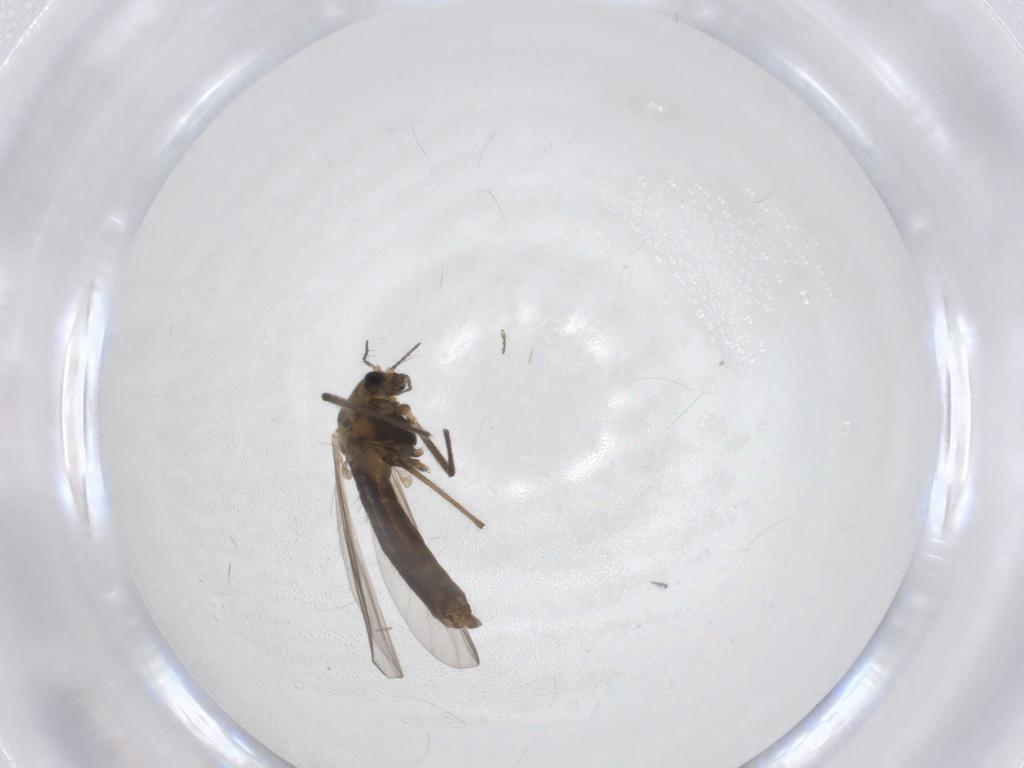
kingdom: Animalia
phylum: Arthropoda
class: Insecta
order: Diptera
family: Chironomidae
